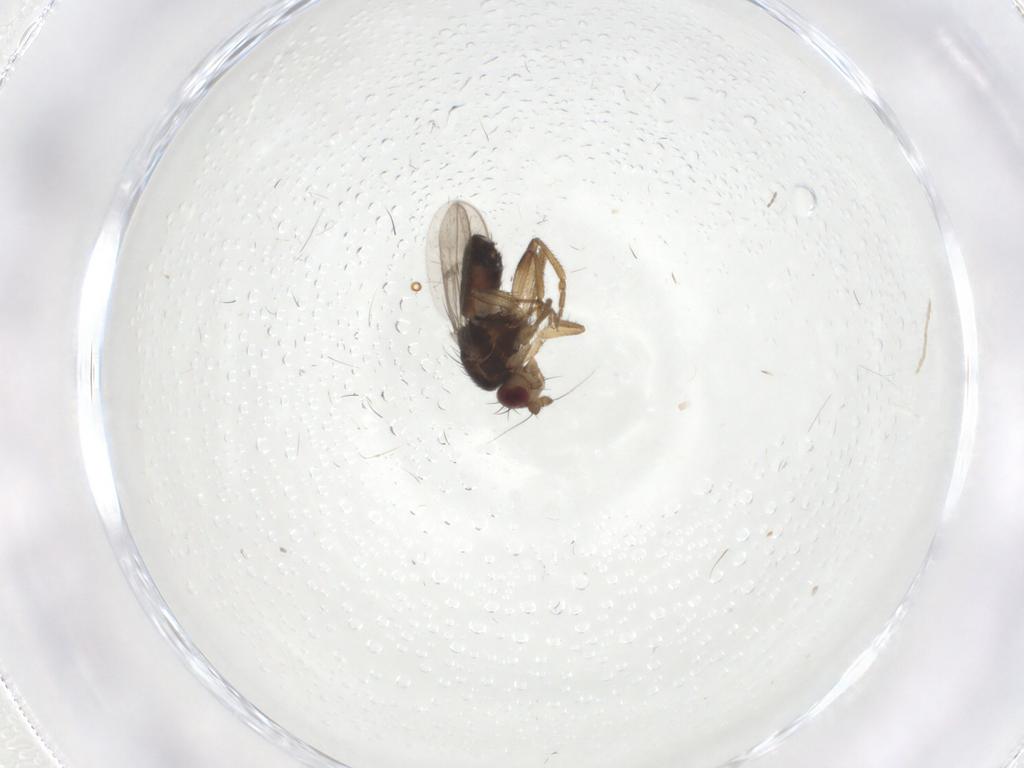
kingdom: Animalia
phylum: Arthropoda
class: Insecta
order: Diptera
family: Sphaeroceridae
